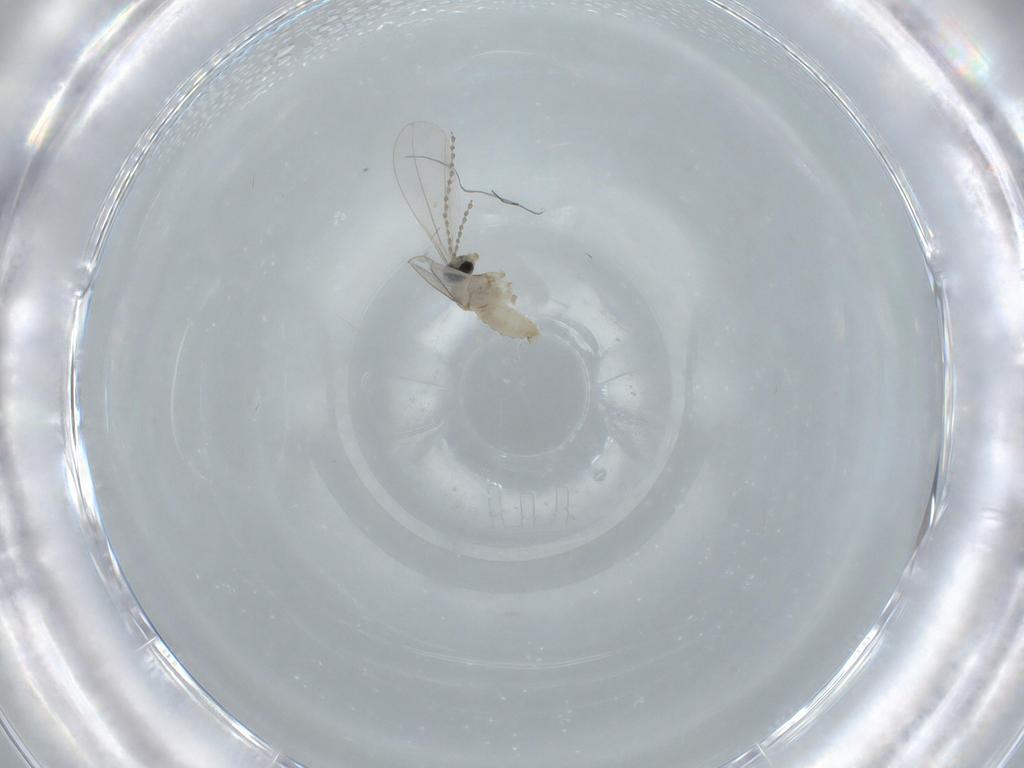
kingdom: Animalia
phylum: Arthropoda
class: Insecta
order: Diptera
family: Cecidomyiidae
